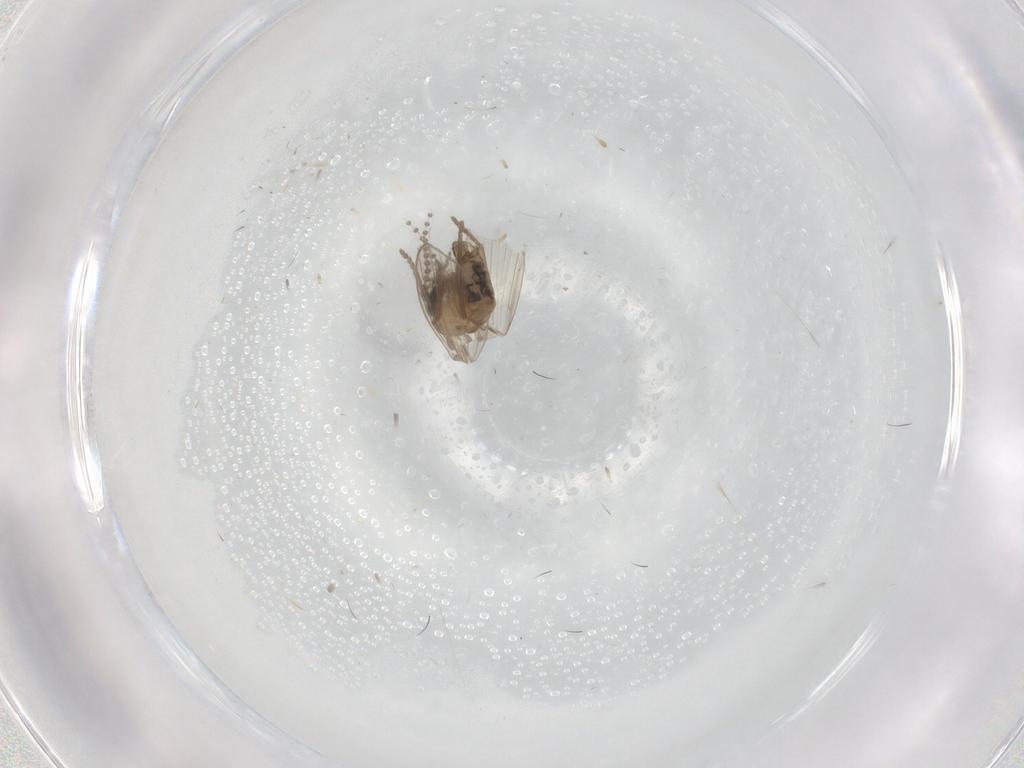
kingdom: Animalia
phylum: Arthropoda
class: Insecta
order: Diptera
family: Psychodidae
